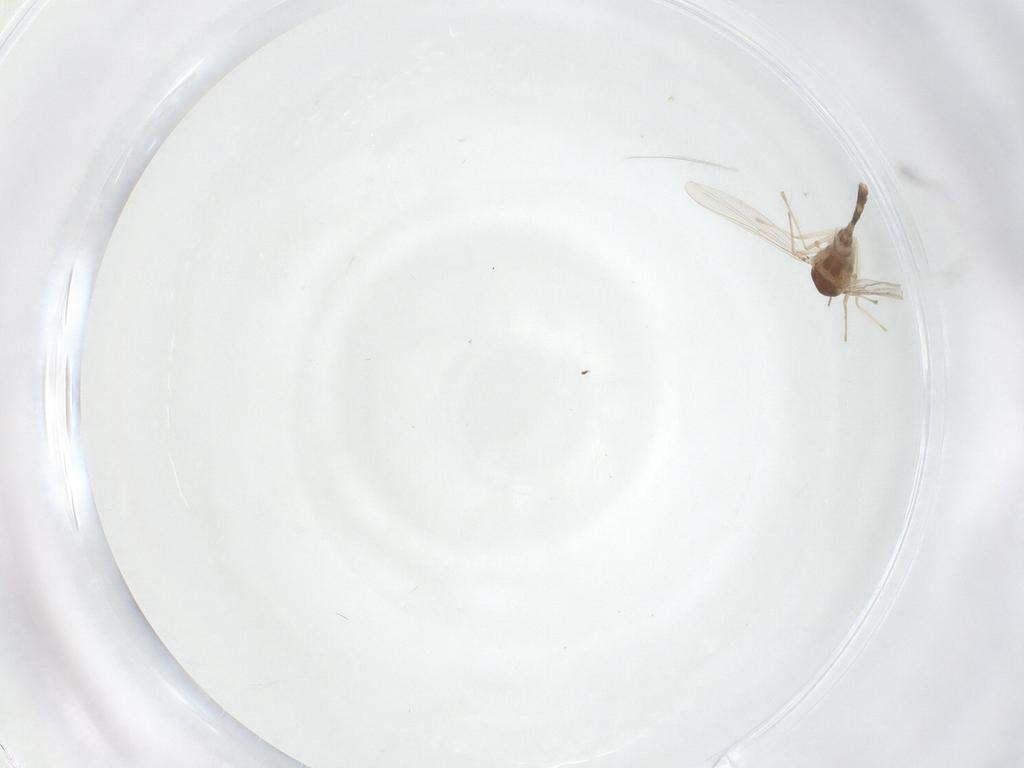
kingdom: Animalia
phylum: Arthropoda
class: Insecta
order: Diptera
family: Chironomidae
